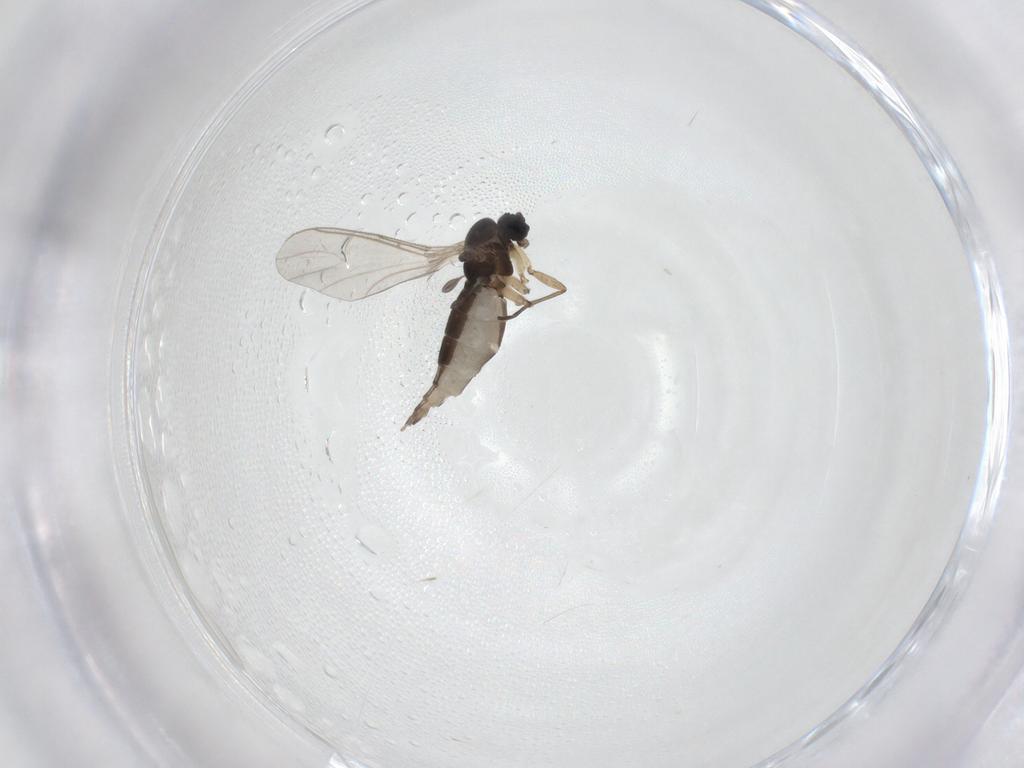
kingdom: Animalia
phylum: Arthropoda
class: Insecta
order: Diptera
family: Sciaridae
